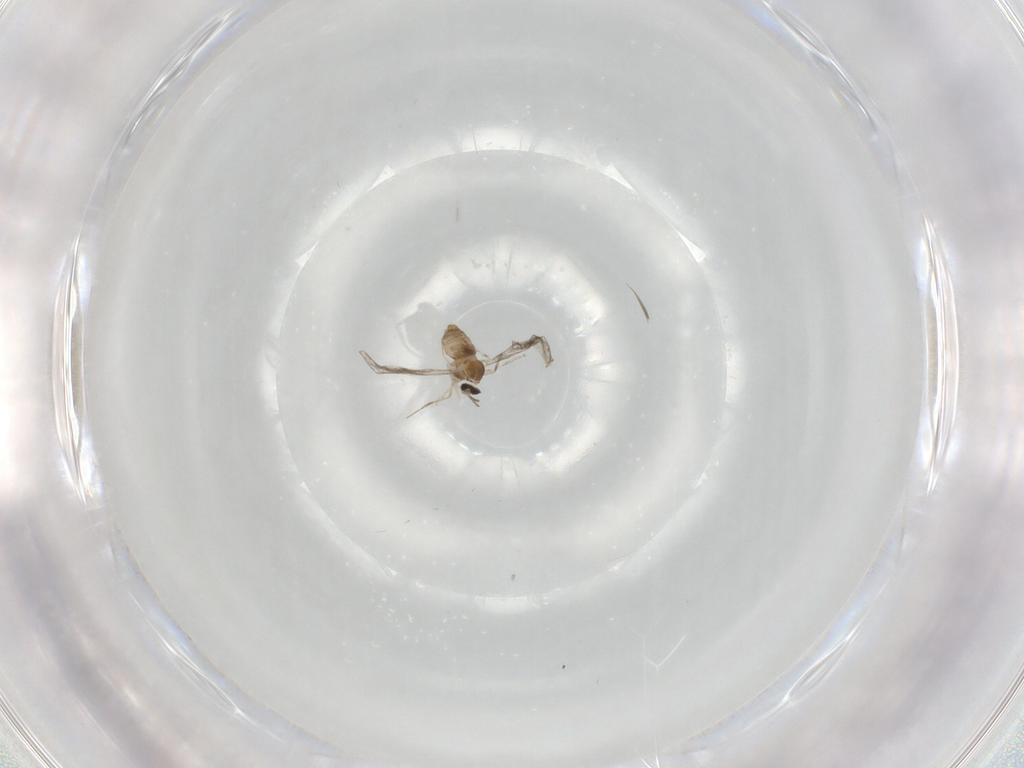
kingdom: Animalia
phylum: Arthropoda
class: Insecta
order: Diptera
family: Cecidomyiidae
